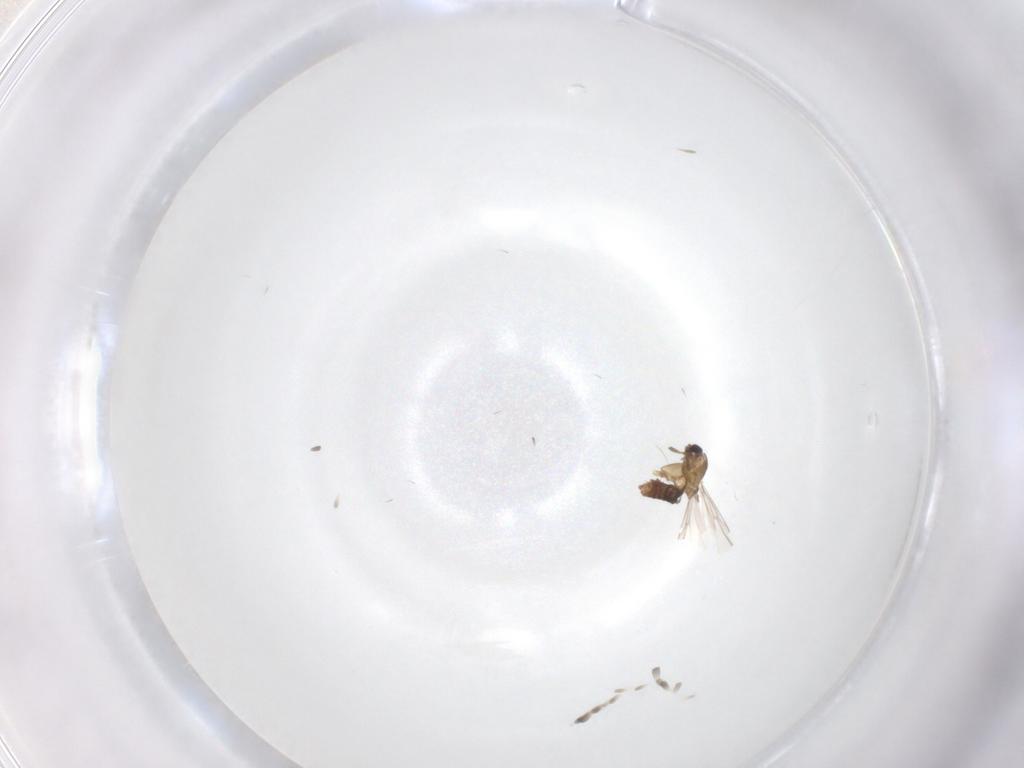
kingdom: Animalia
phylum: Arthropoda
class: Insecta
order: Diptera
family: Chironomidae
